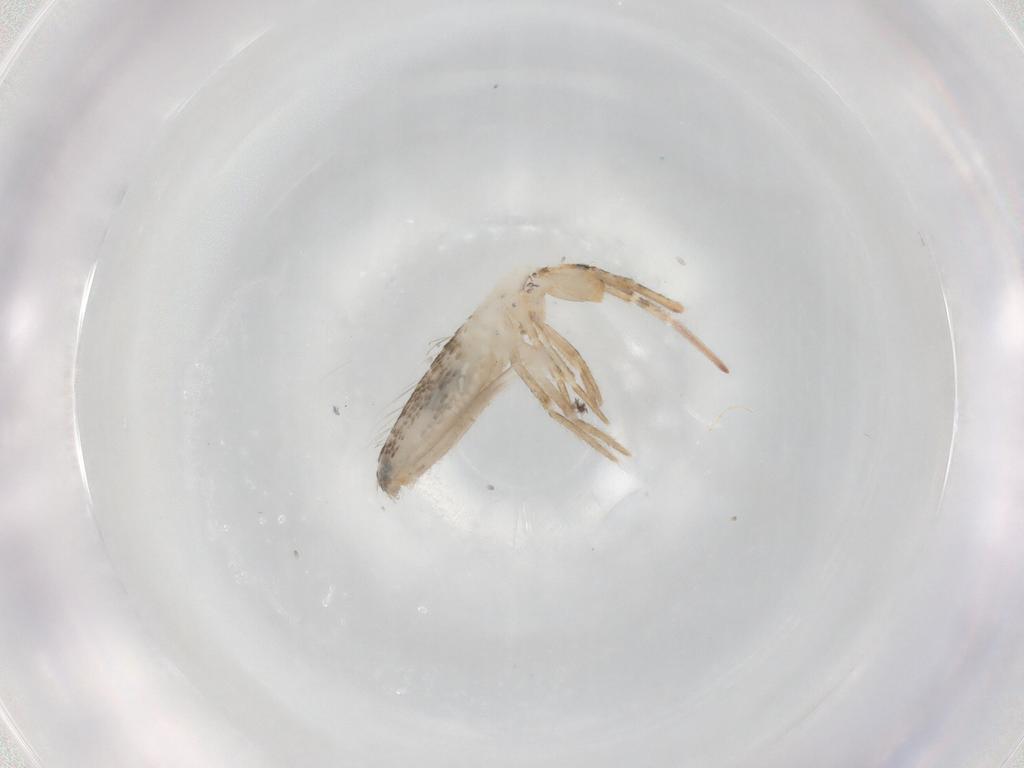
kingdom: Animalia
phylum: Arthropoda
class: Collembola
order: Entomobryomorpha
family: Entomobryidae
